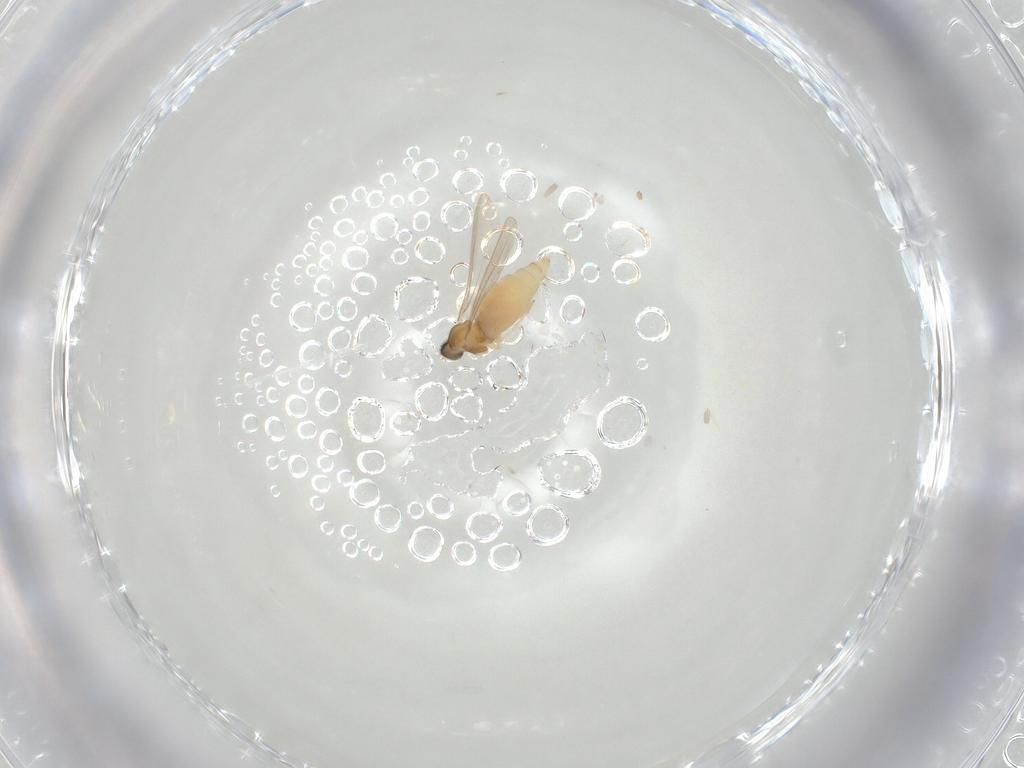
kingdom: Animalia
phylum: Arthropoda
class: Insecta
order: Diptera
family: Cecidomyiidae
